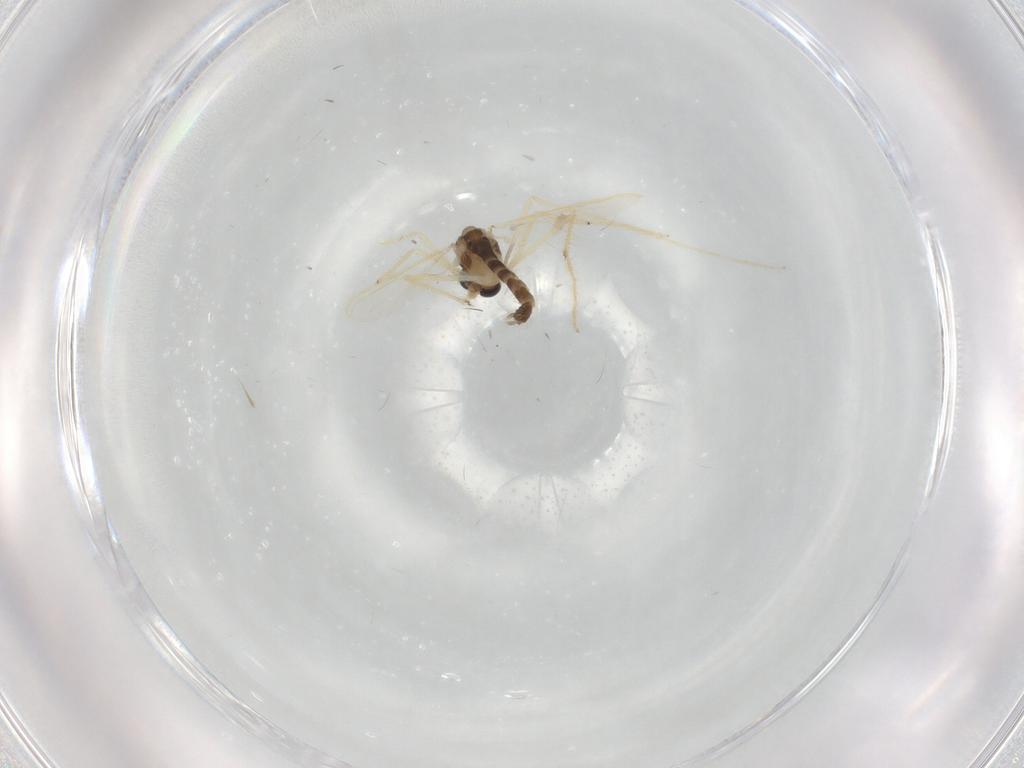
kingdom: Animalia
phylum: Arthropoda
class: Insecta
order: Diptera
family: Chironomidae
